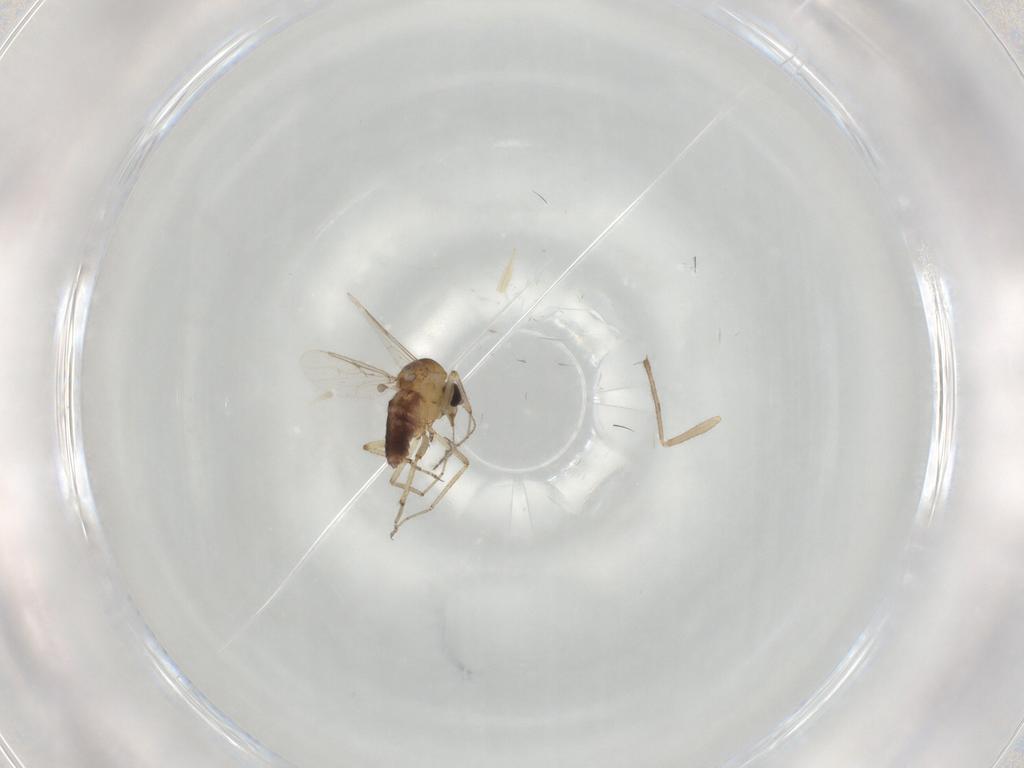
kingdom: Animalia
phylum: Arthropoda
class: Insecta
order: Diptera
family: Ceratopogonidae
